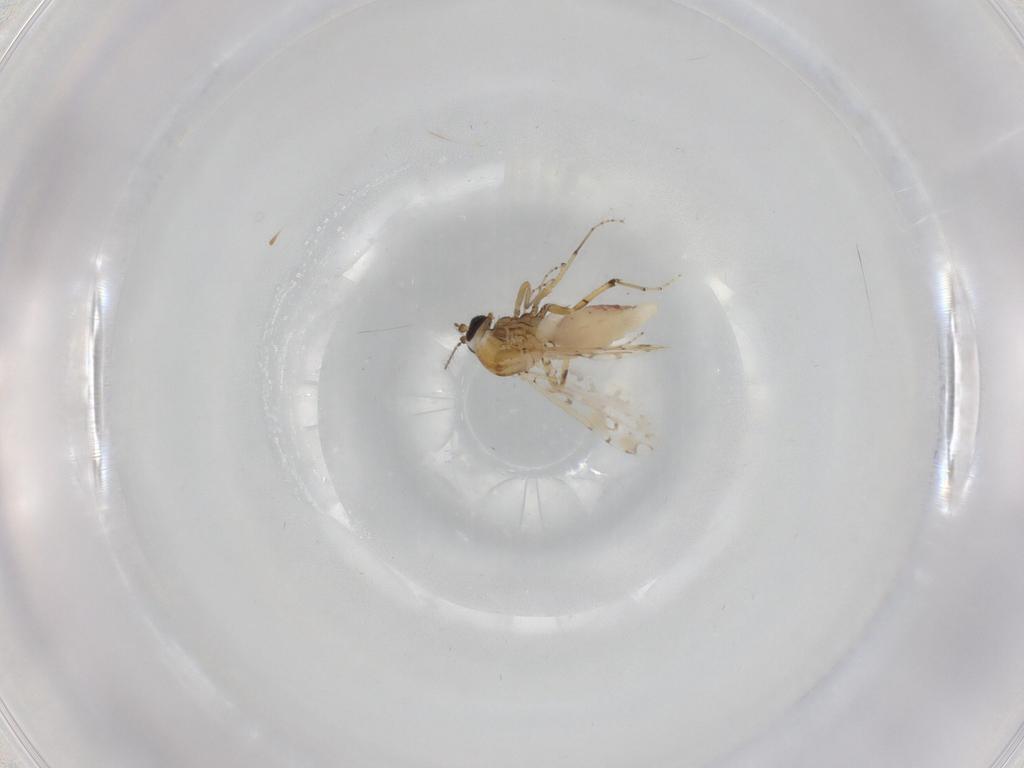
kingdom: Animalia
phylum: Arthropoda
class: Insecta
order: Diptera
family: Ceratopogonidae
